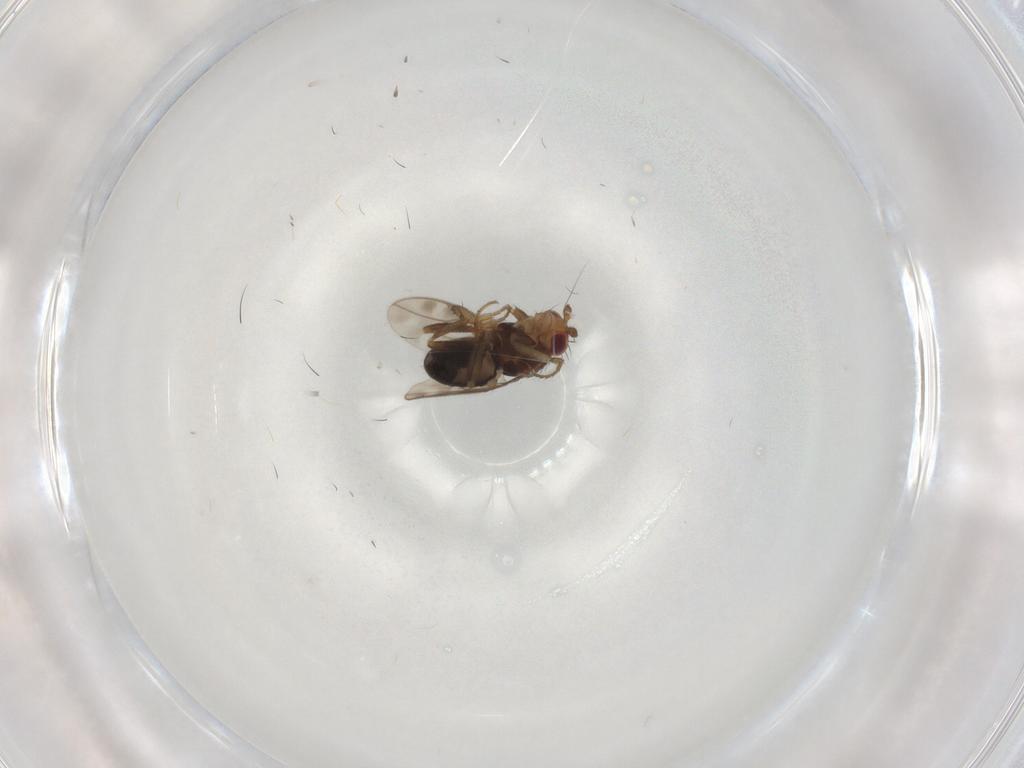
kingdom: Animalia
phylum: Arthropoda
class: Insecta
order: Diptera
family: Sphaeroceridae
